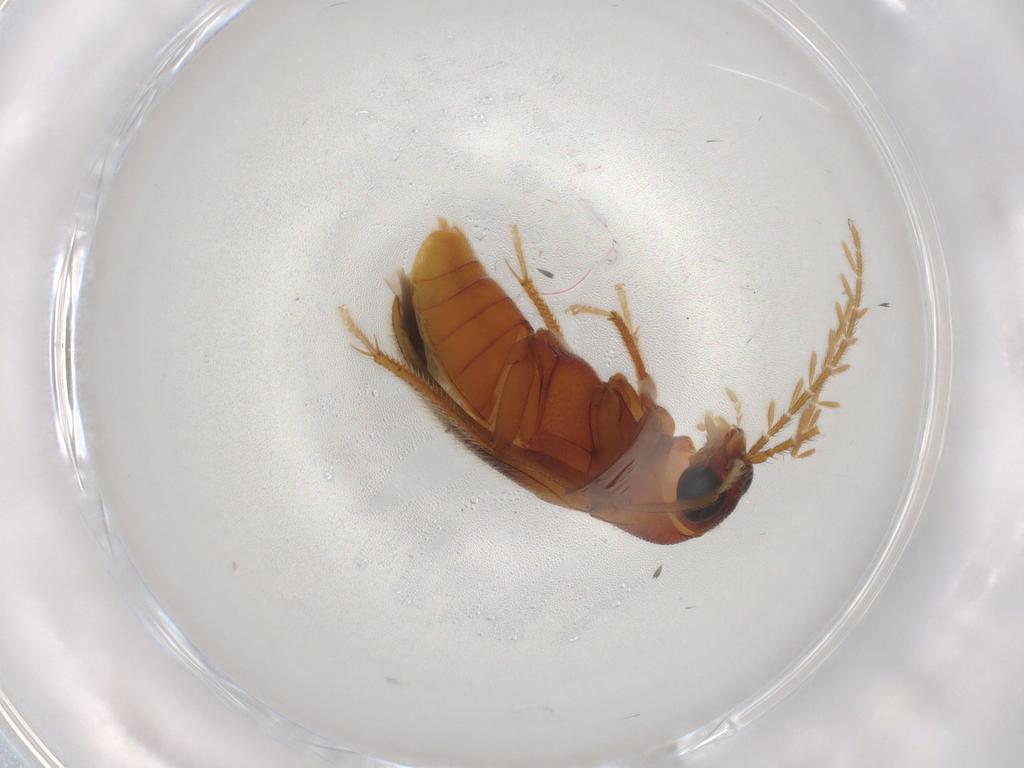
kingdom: Animalia
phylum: Arthropoda
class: Insecta
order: Coleoptera
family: Ptilodactylidae
